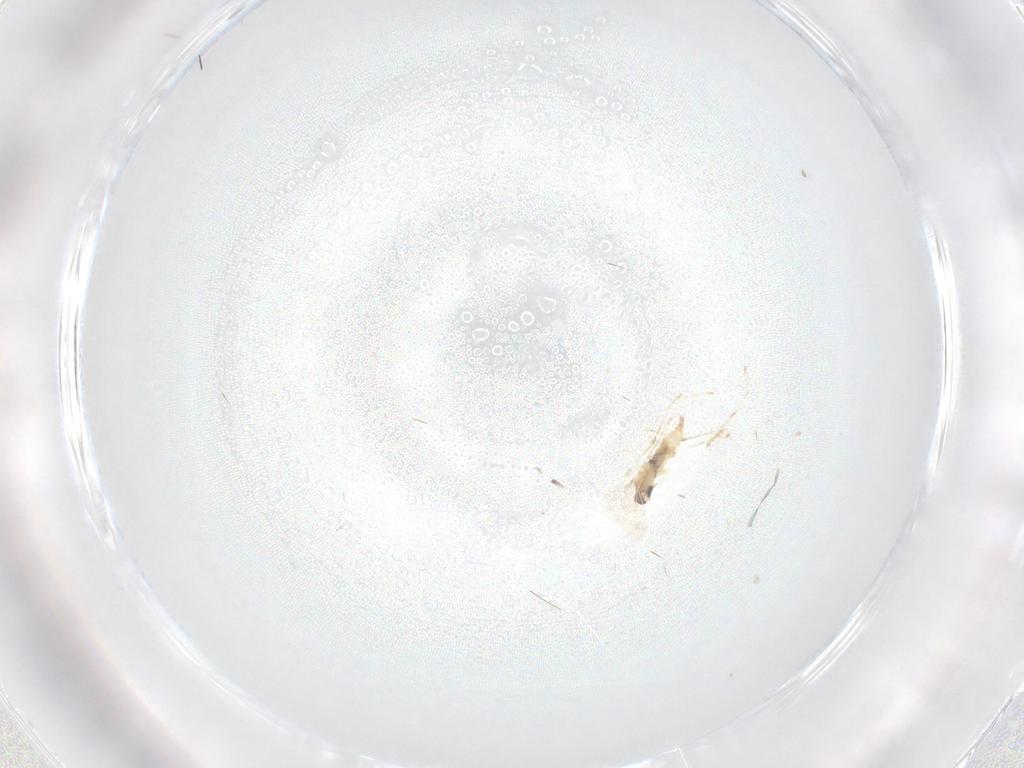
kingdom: Animalia
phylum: Arthropoda
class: Insecta
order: Diptera
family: Cecidomyiidae
